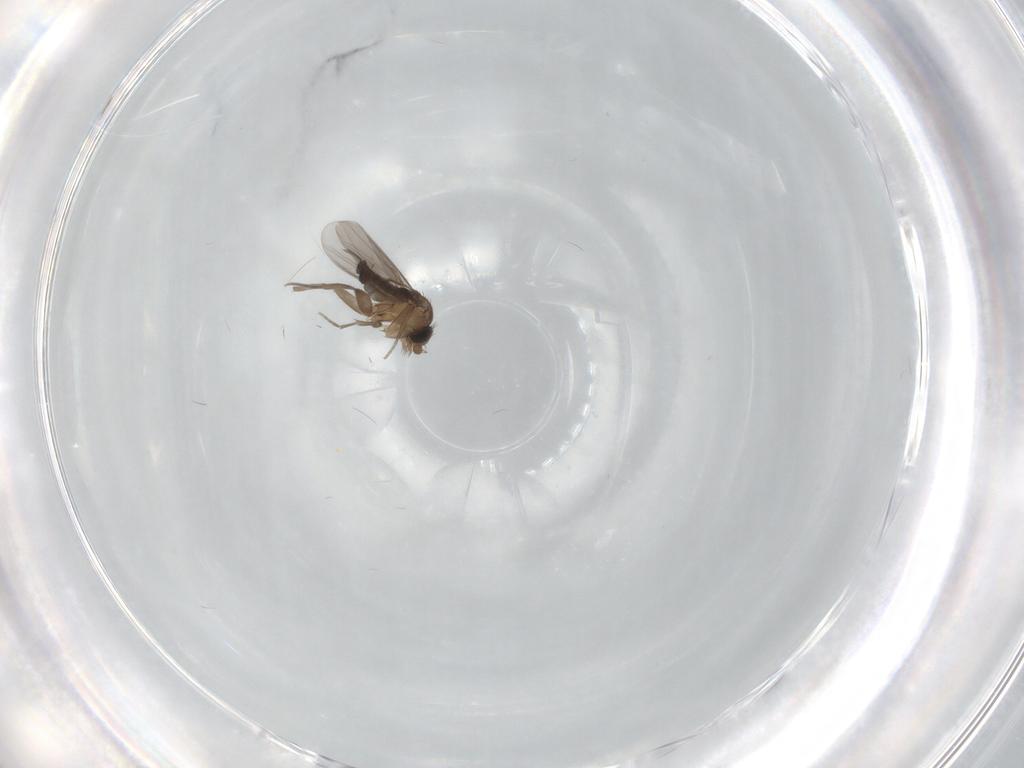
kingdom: Animalia
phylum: Arthropoda
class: Insecta
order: Diptera
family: Phoridae
